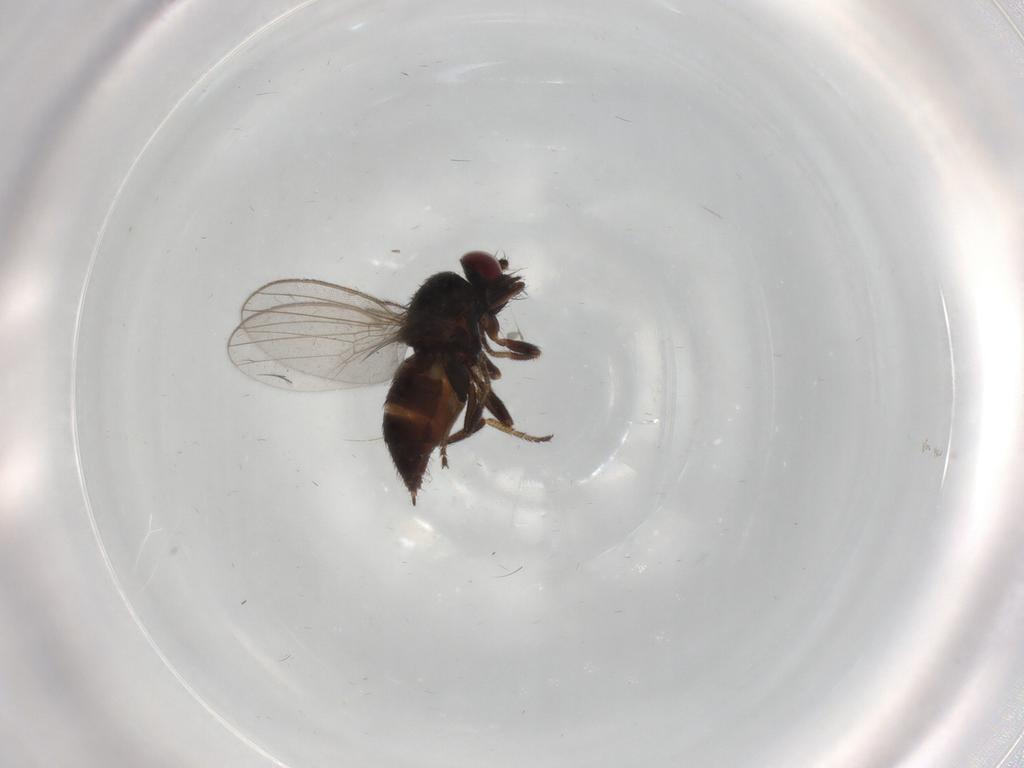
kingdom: Animalia
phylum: Arthropoda
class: Insecta
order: Diptera
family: Milichiidae
